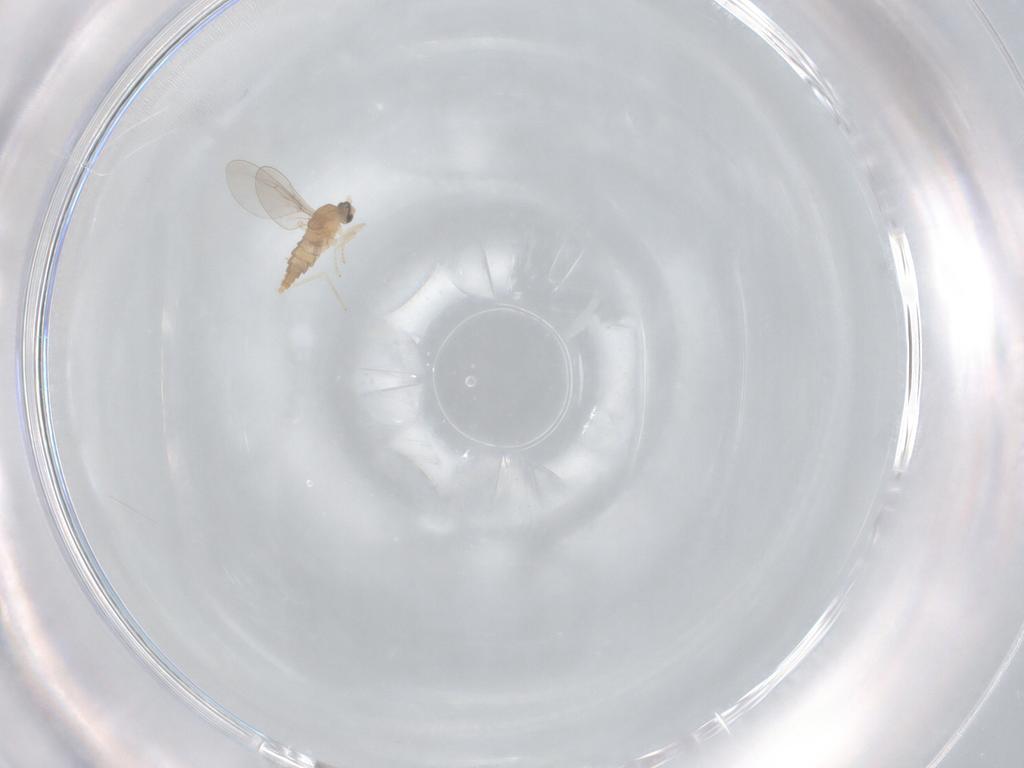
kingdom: Animalia
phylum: Arthropoda
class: Insecta
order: Diptera
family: Cecidomyiidae
